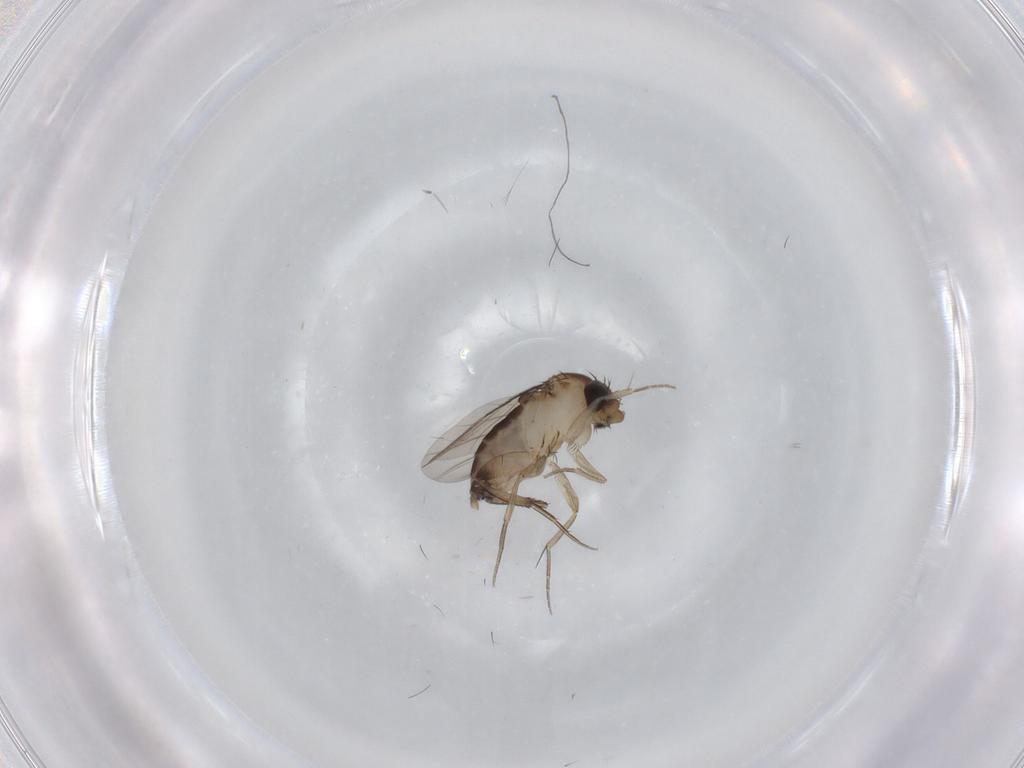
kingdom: Animalia
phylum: Arthropoda
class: Insecta
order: Diptera
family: Phoridae
